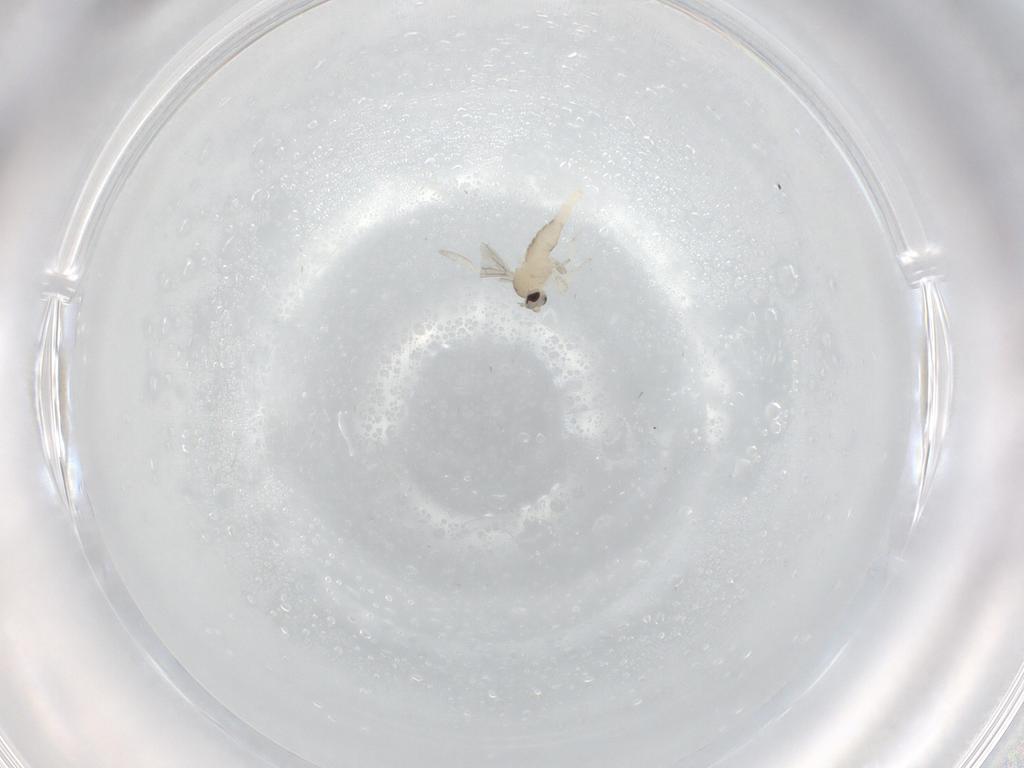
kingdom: Animalia
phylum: Arthropoda
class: Insecta
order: Diptera
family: Cecidomyiidae
